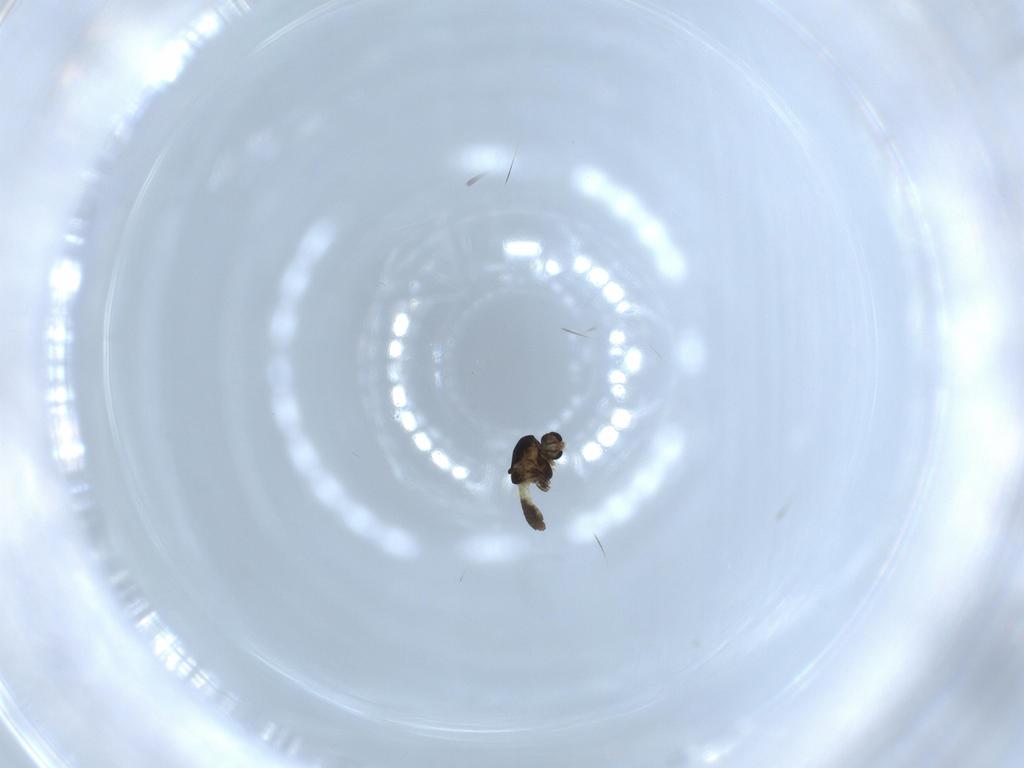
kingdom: Animalia
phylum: Arthropoda
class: Insecta
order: Diptera
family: Chironomidae
